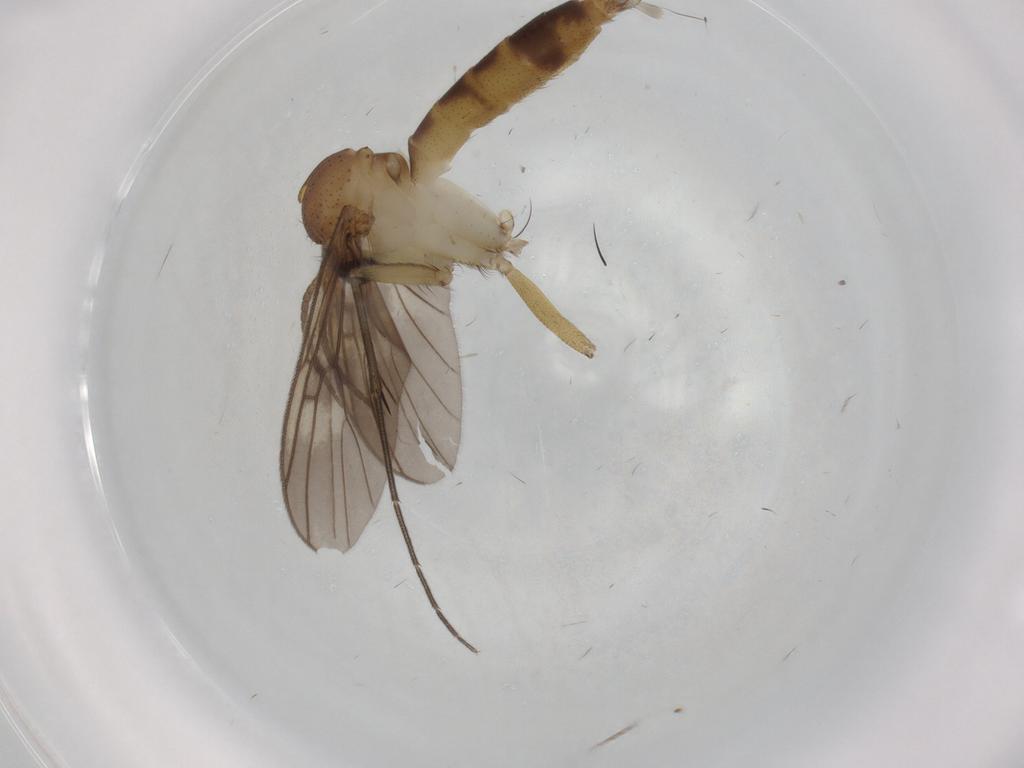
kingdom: Animalia
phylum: Arthropoda
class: Insecta
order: Diptera
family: Mycetophilidae
